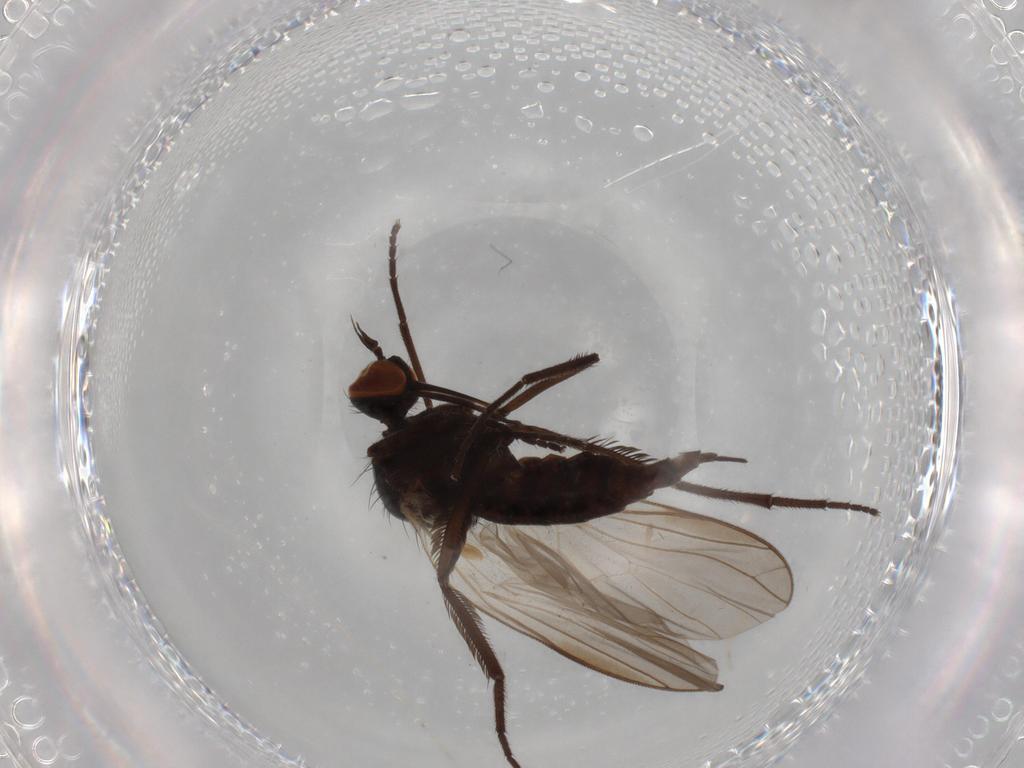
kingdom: Animalia
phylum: Arthropoda
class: Insecta
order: Diptera
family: Empididae
